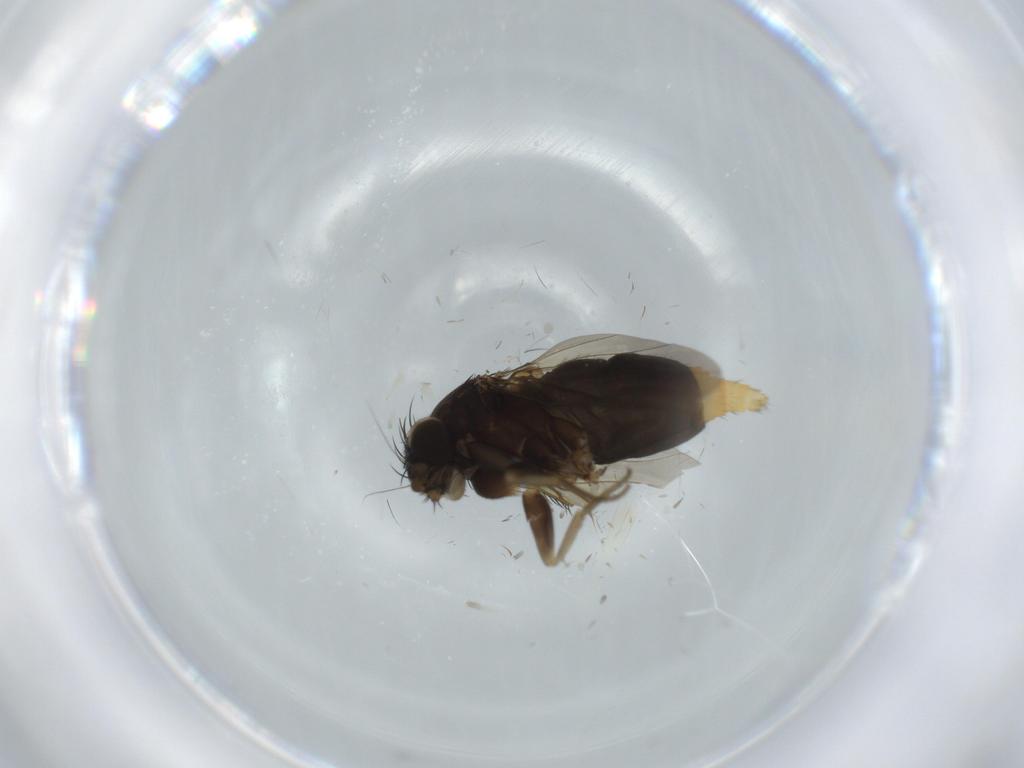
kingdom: Animalia
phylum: Arthropoda
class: Insecta
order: Diptera
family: Phoridae
